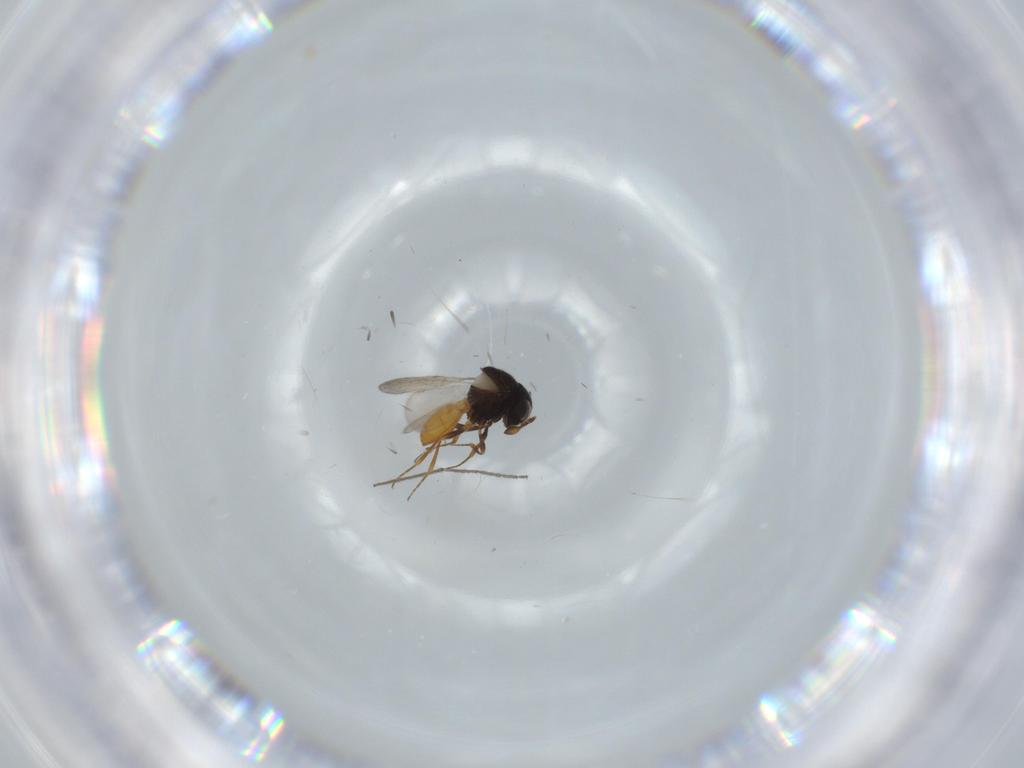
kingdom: Animalia
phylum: Arthropoda
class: Insecta
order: Hymenoptera
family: Scelionidae
